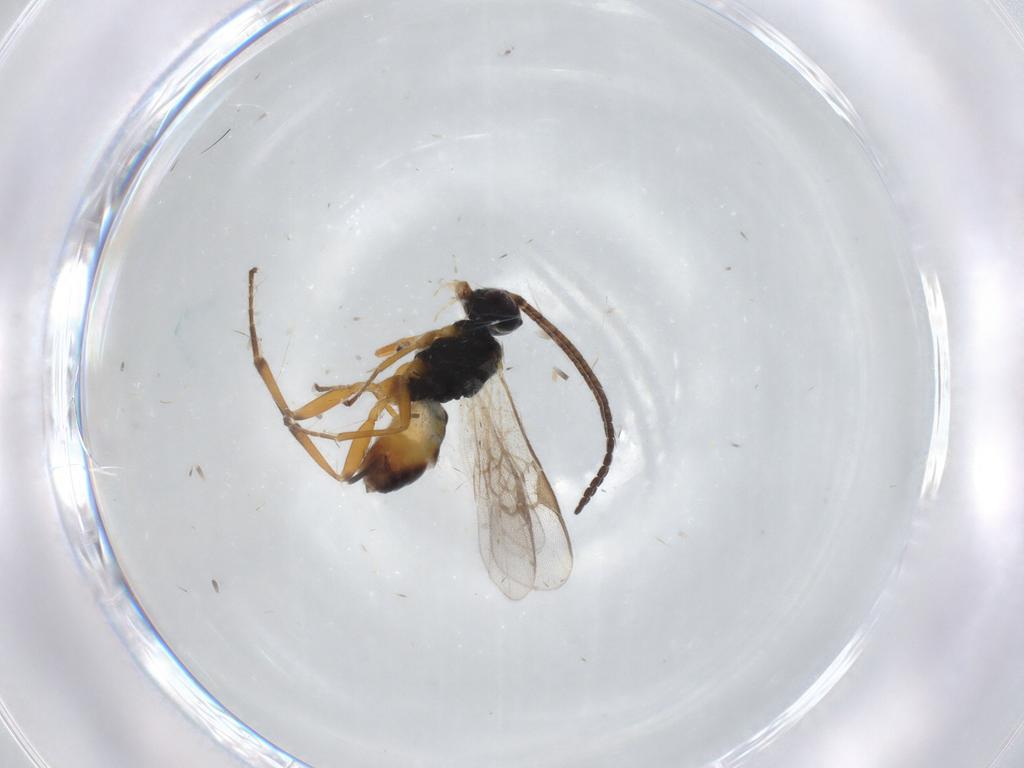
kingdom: Animalia
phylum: Arthropoda
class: Insecta
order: Hymenoptera
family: Braconidae
